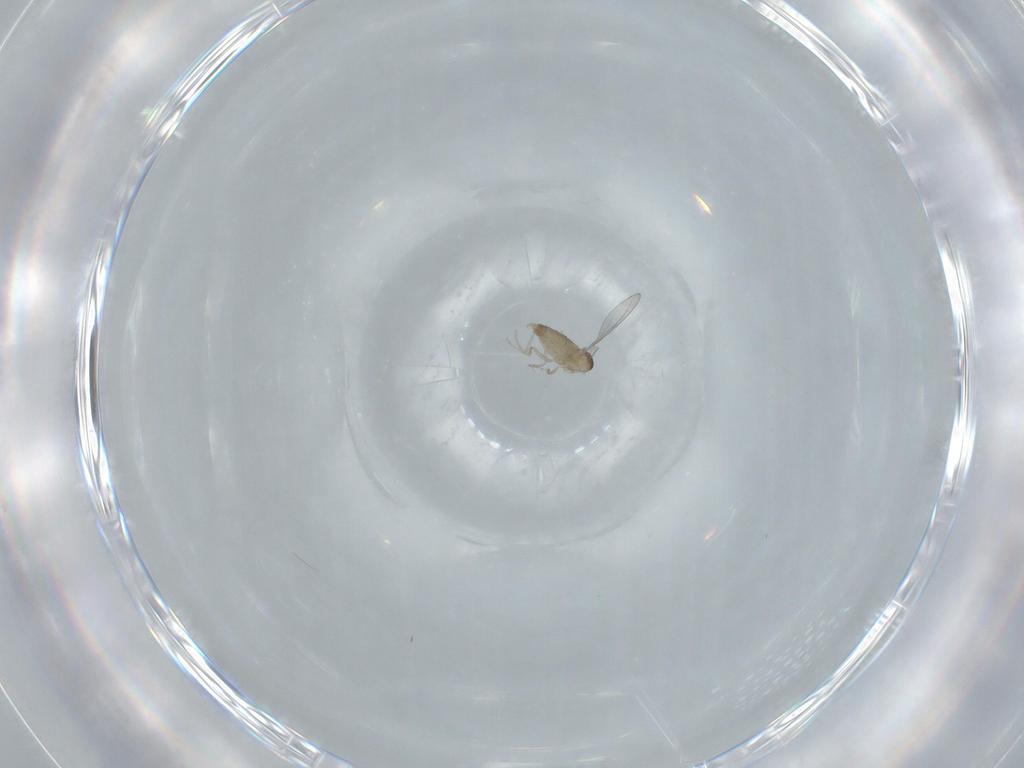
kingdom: Animalia
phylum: Arthropoda
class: Insecta
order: Diptera
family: Cecidomyiidae
